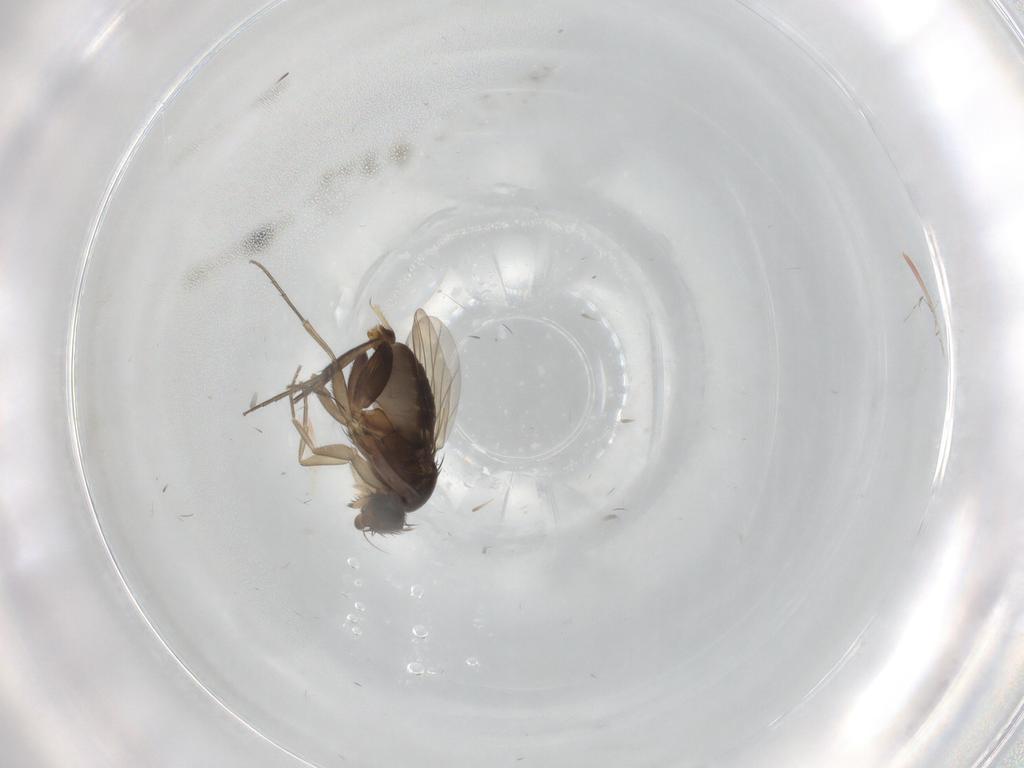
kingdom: Animalia
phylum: Arthropoda
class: Insecta
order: Diptera
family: Phoridae
